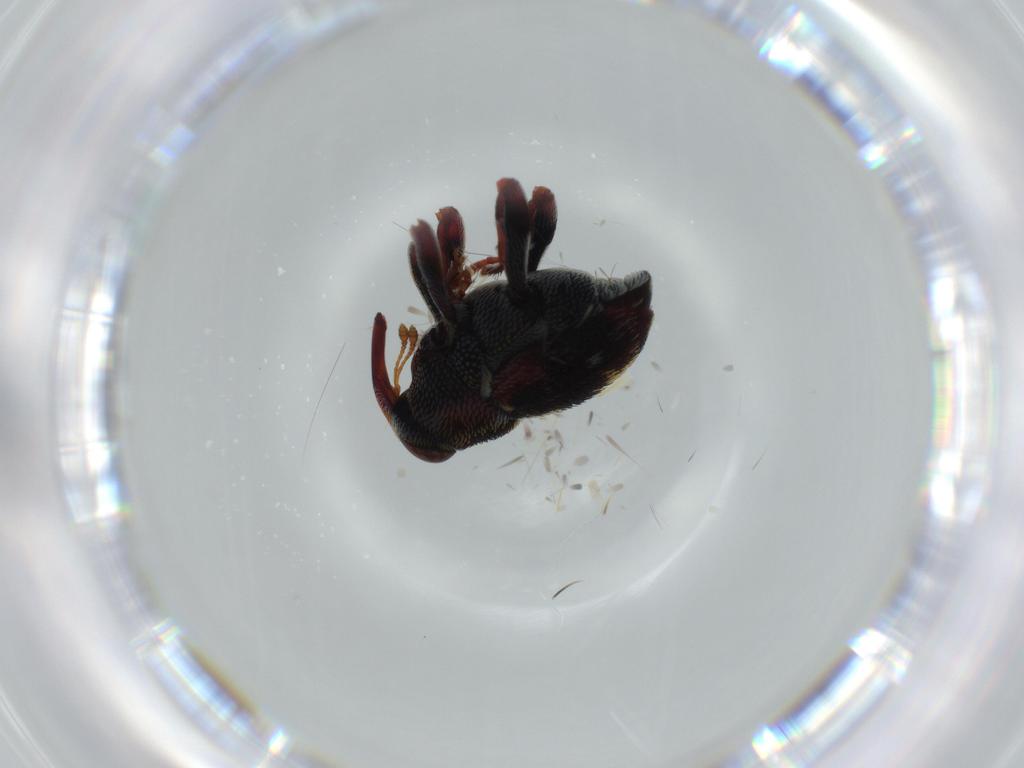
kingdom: Animalia
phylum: Arthropoda
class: Insecta
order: Coleoptera
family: Curculionidae
